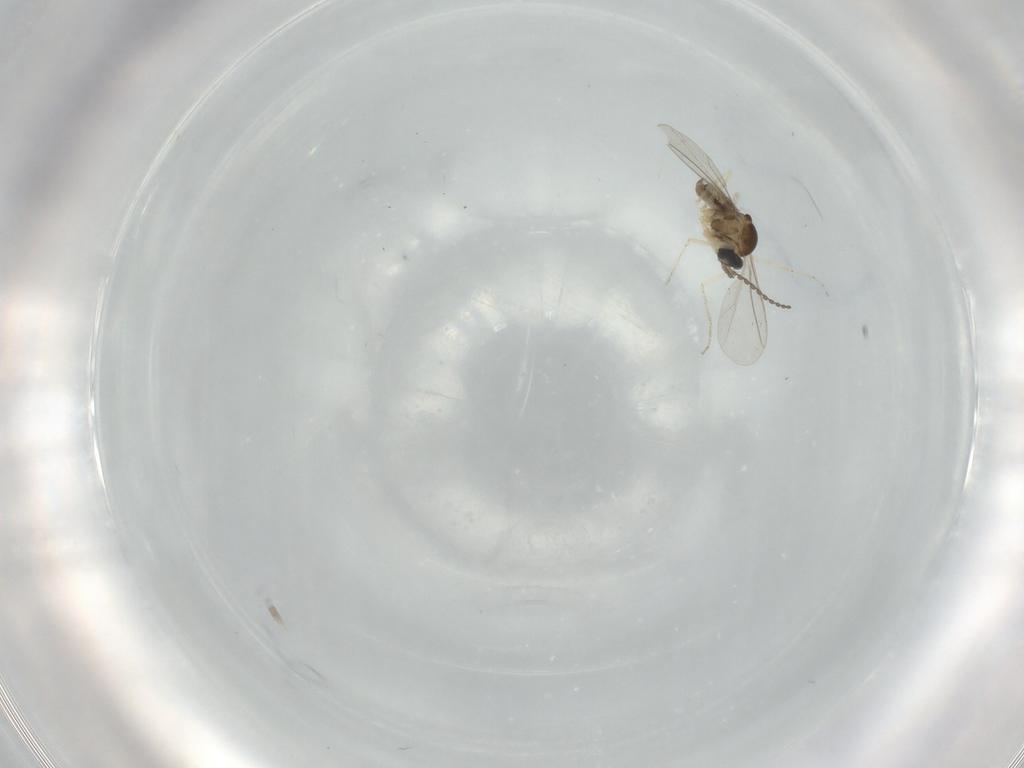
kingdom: Animalia
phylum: Arthropoda
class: Insecta
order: Diptera
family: Cecidomyiidae
